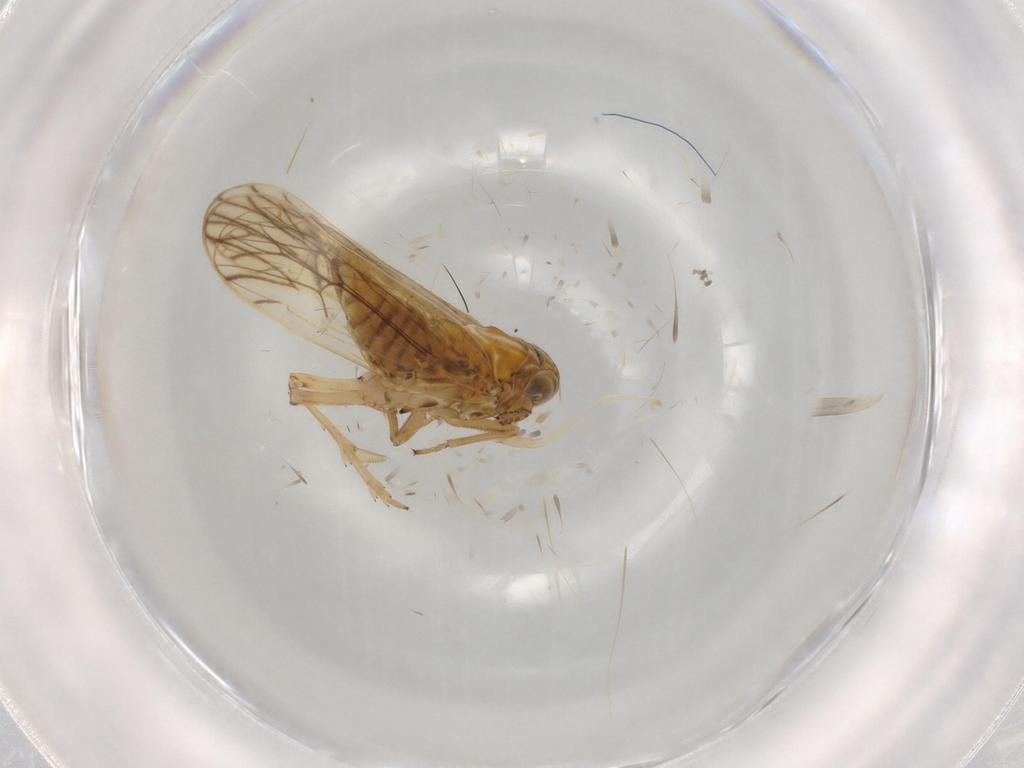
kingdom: Animalia
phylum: Arthropoda
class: Insecta
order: Hemiptera
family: Delphacidae
